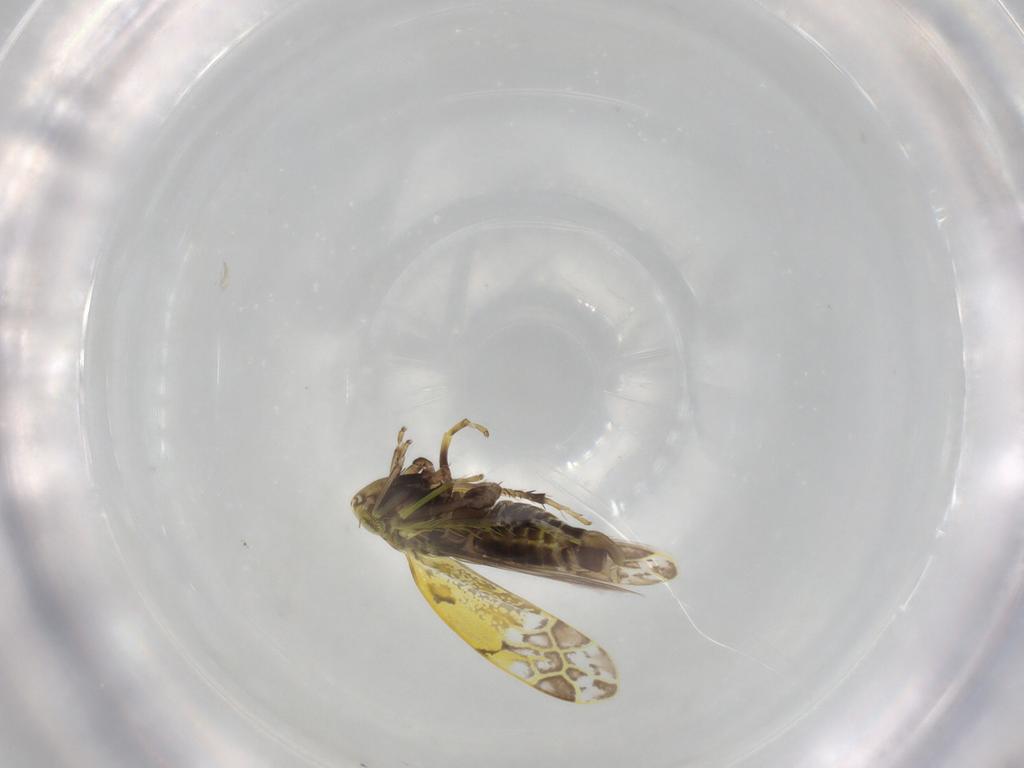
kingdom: Animalia
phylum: Arthropoda
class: Insecta
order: Hemiptera
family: Cicadellidae
